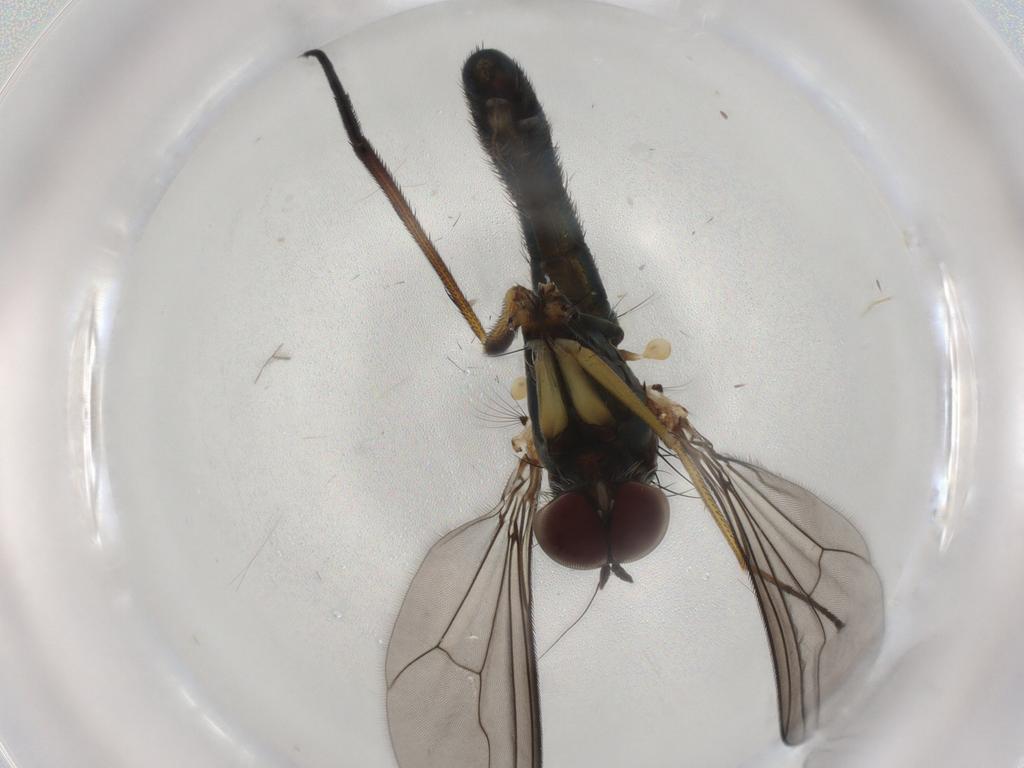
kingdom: Animalia
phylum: Arthropoda
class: Insecta
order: Diptera
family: Dolichopodidae
